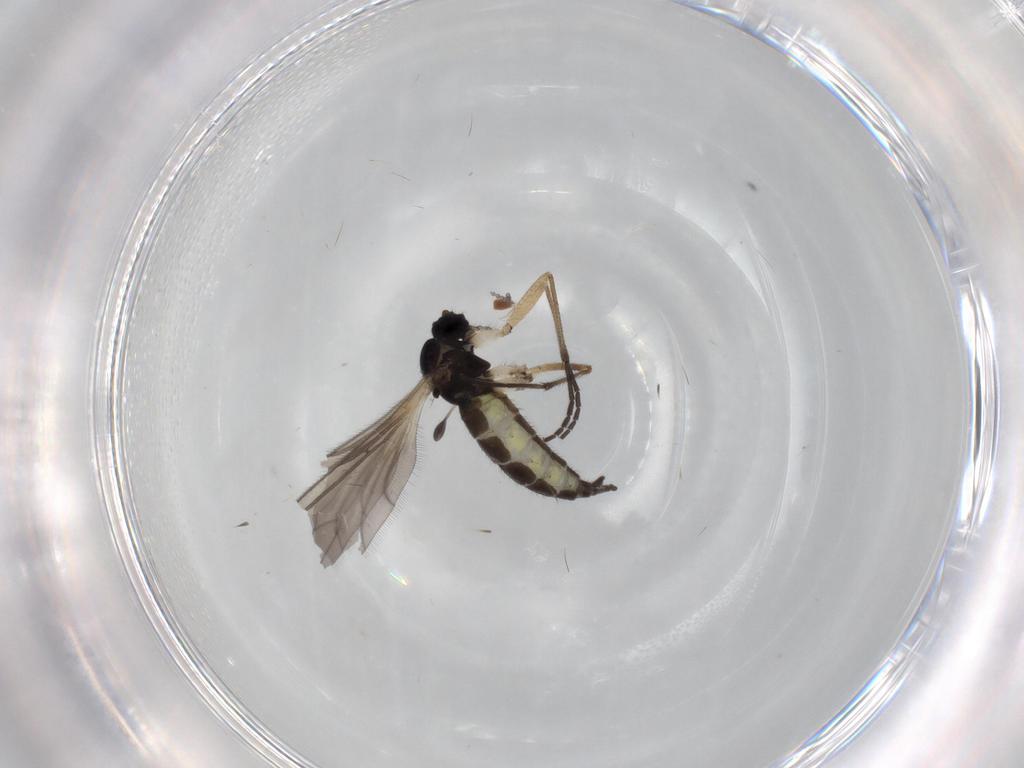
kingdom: Animalia
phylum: Arthropoda
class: Insecta
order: Diptera
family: Sciaridae
